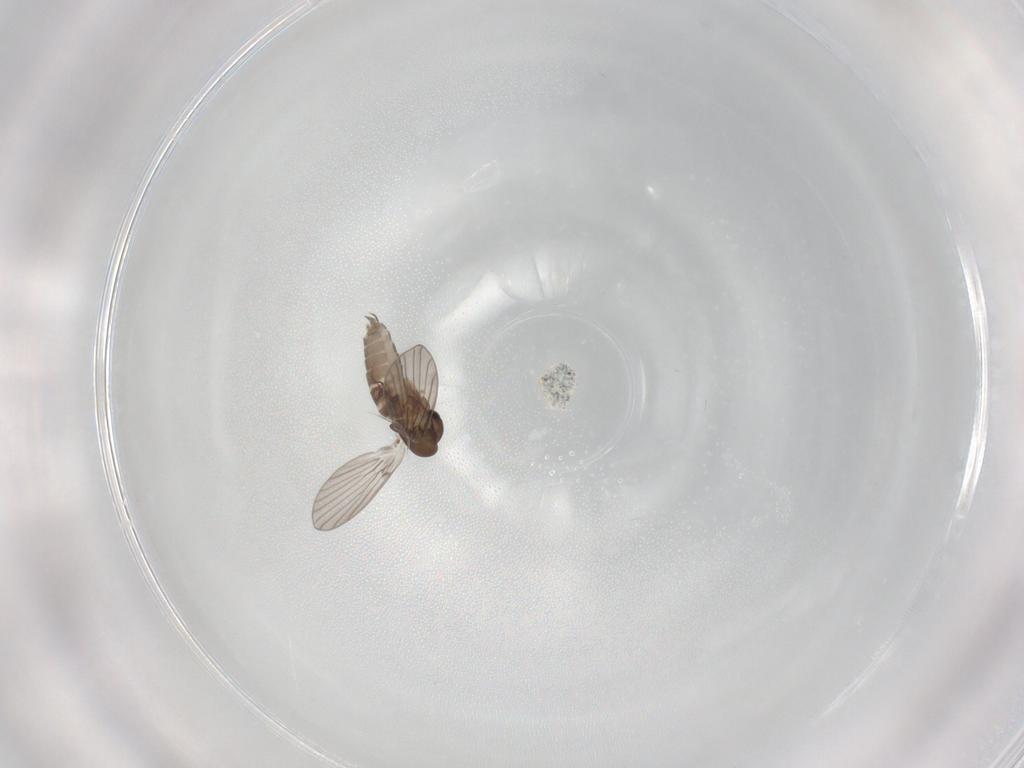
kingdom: Animalia
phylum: Arthropoda
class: Insecta
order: Diptera
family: Phoridae
